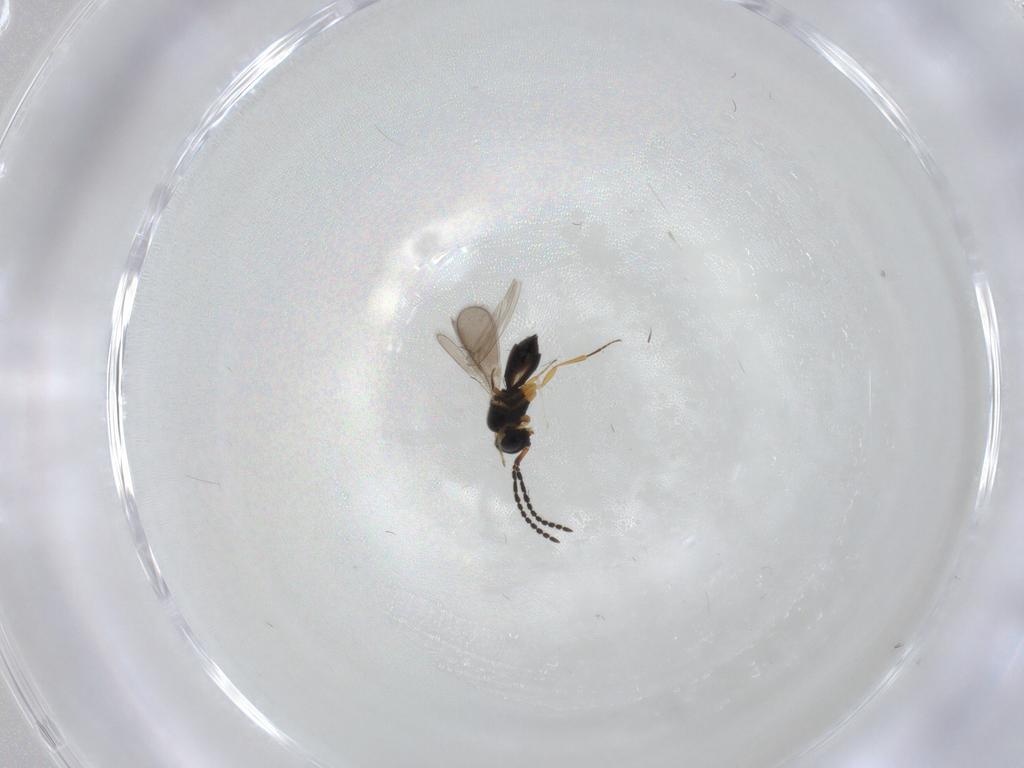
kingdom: Animalia
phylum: Arthropoda
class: Insecta
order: Hymenoptera
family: Scelionidae
